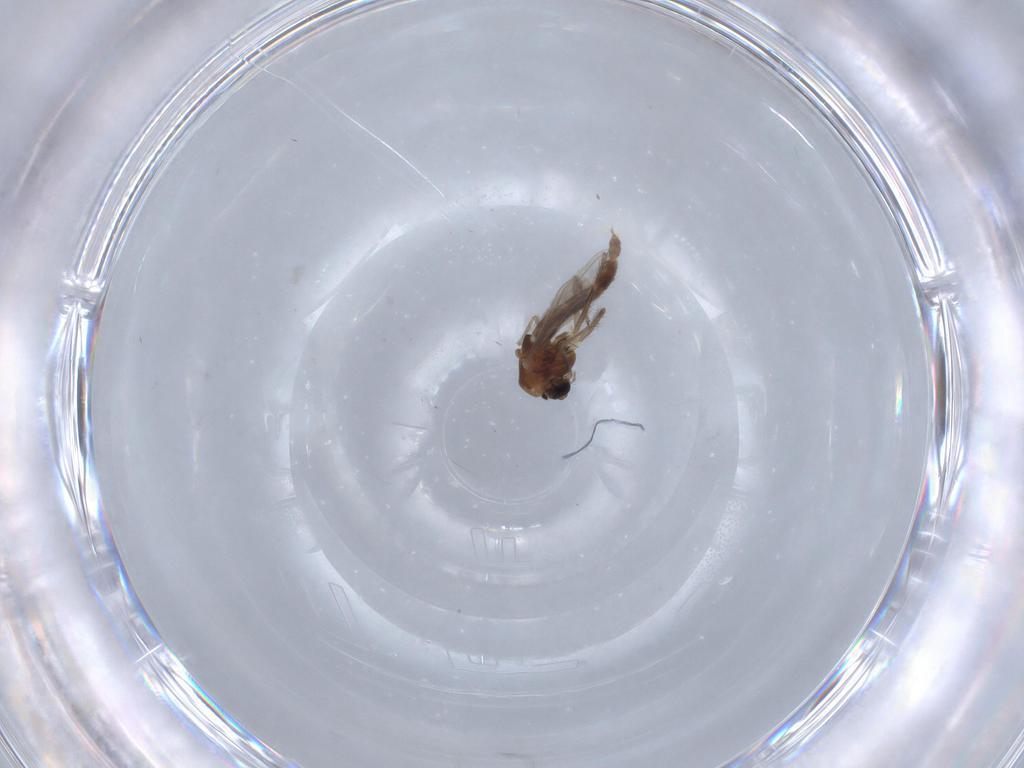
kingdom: Animalia
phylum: Arthropoda
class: Insecta
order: Diptera
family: Chironomidae
